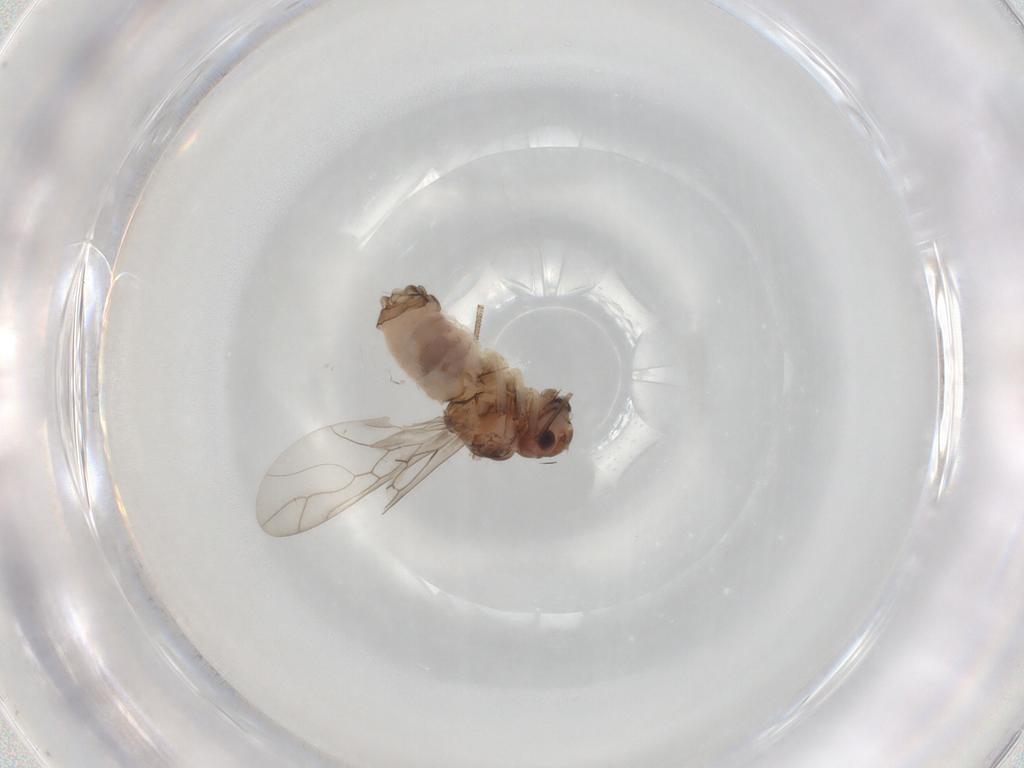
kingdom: Animalia
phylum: Arthropoda
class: Insecta
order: Psocodea
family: Peripsocidae
